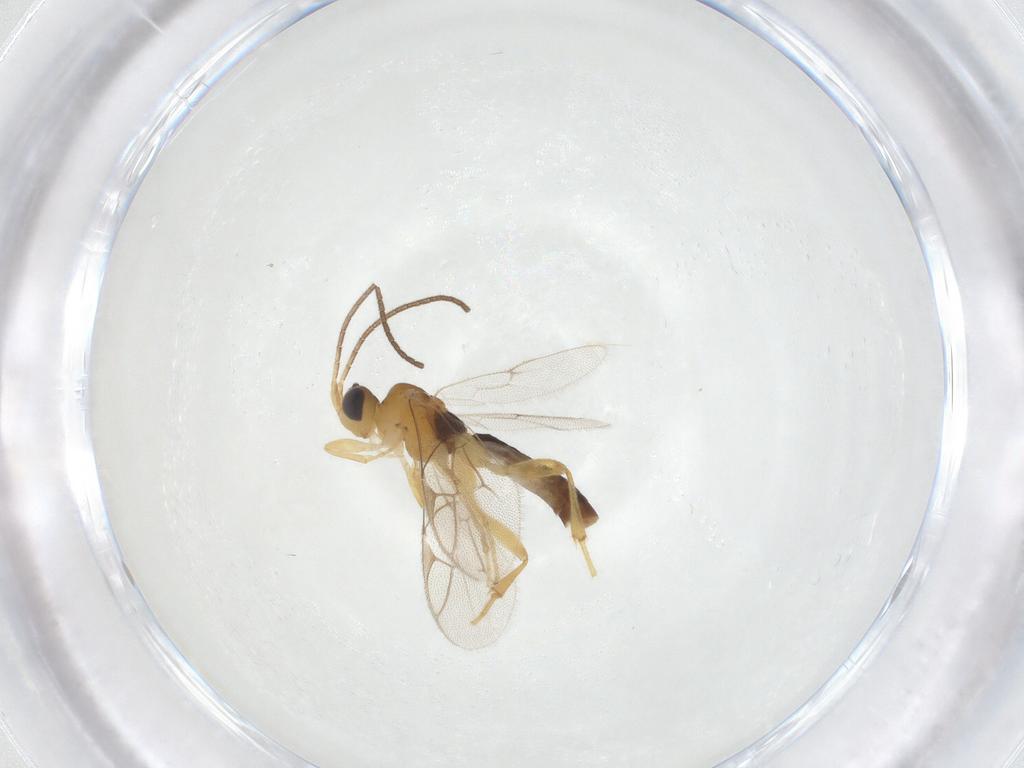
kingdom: Animalia
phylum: Arthropoda
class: Insecta
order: Hymenoptera
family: Ichneumonidae
